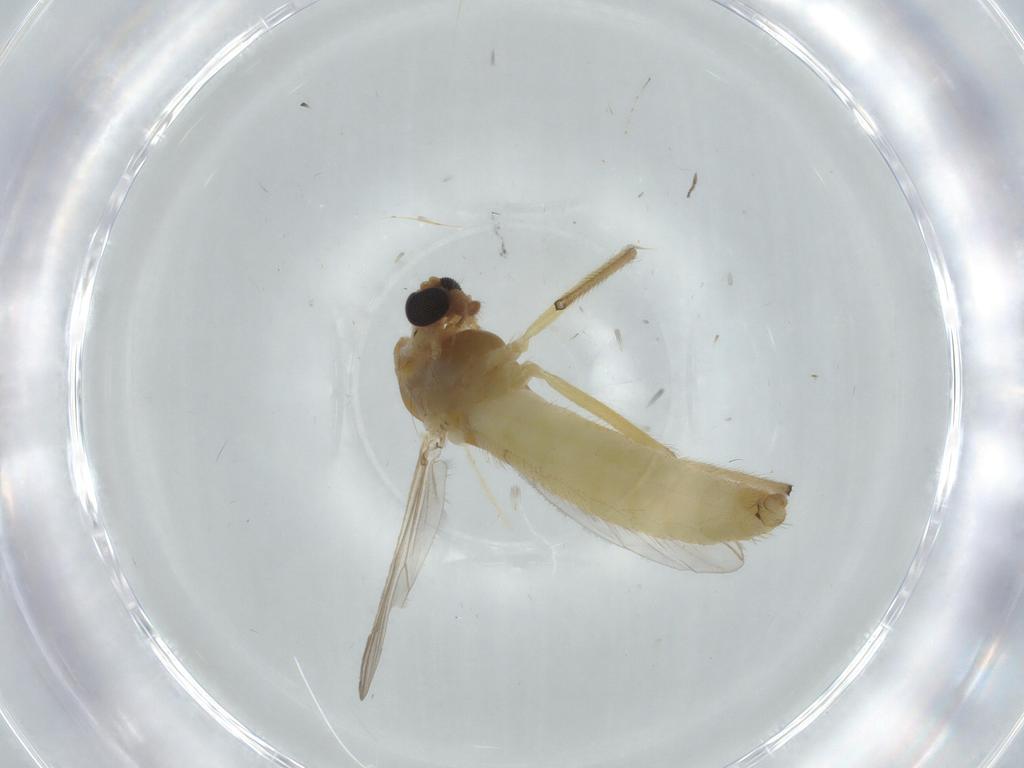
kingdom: Animalia
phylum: Arthropoda
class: Insecta
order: Diptera
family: Chironomidae
